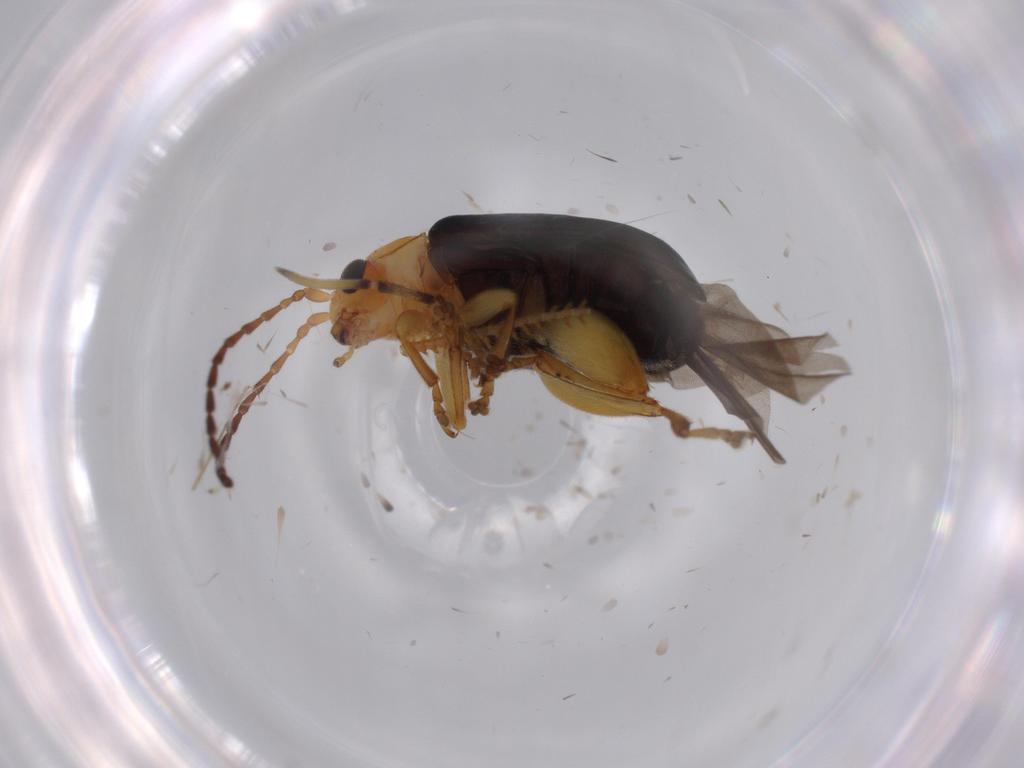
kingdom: Animalia
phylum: Arthropoda
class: Insecta
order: Coleoptera
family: Chrysomelidae
